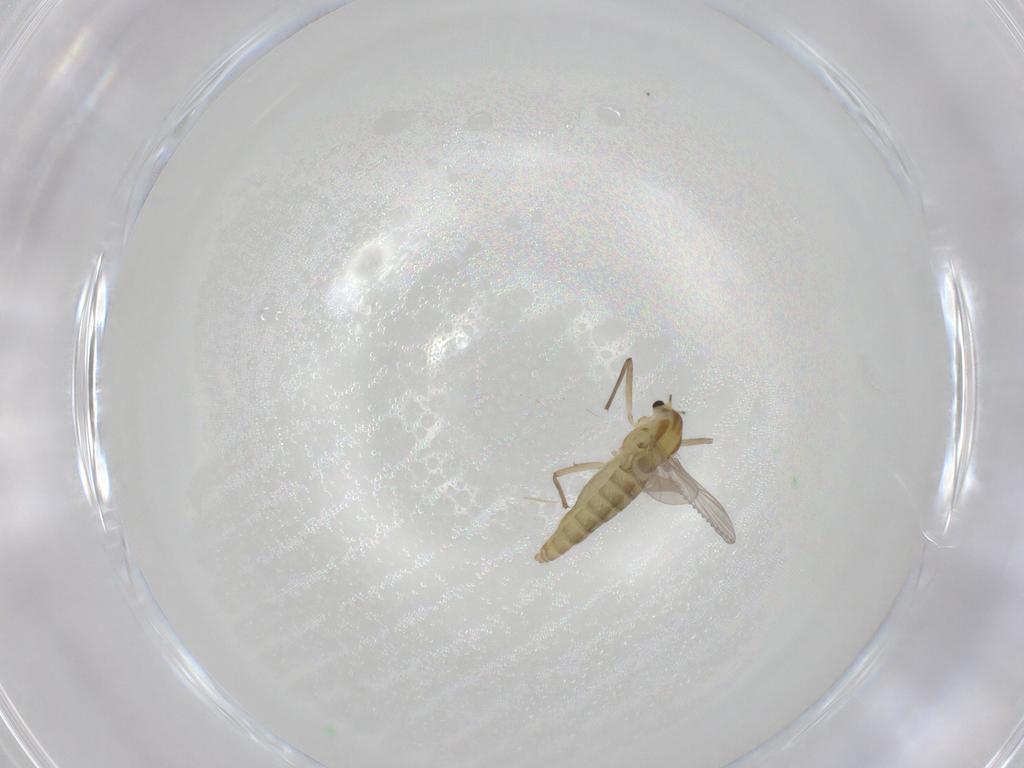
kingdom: Animalia
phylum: Arthropoda
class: Insecta
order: Diptera
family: Chironomidae
